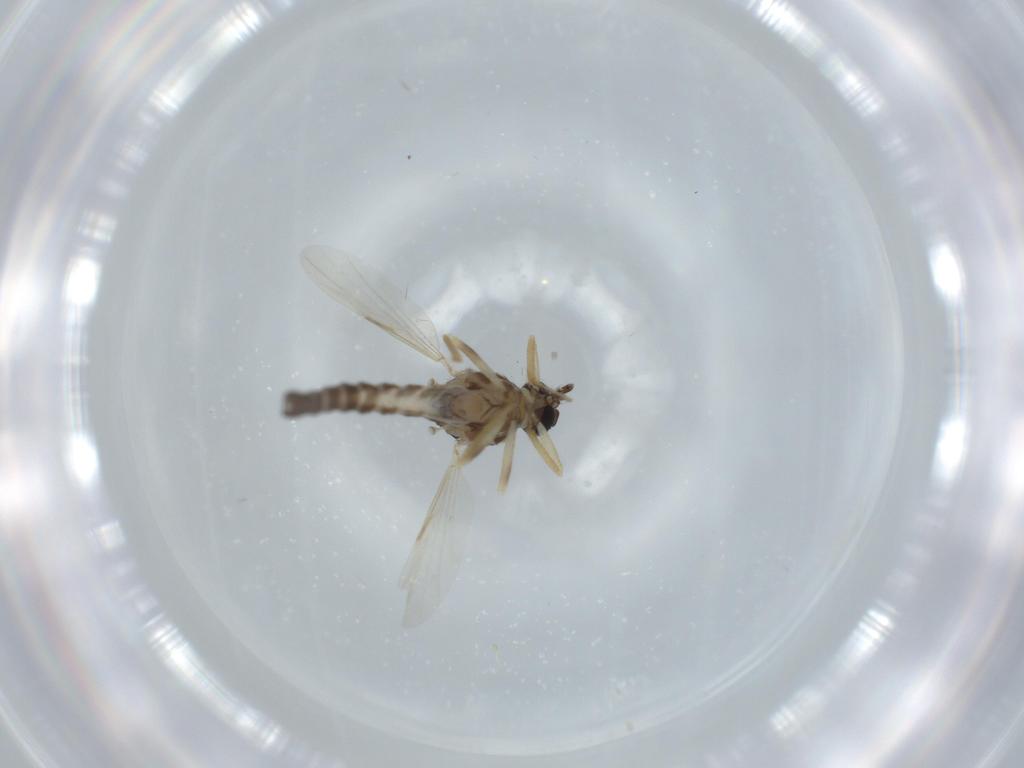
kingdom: Animalia
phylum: Arthropoda
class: Insecta
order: Diptera
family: Ceratopogonidae
